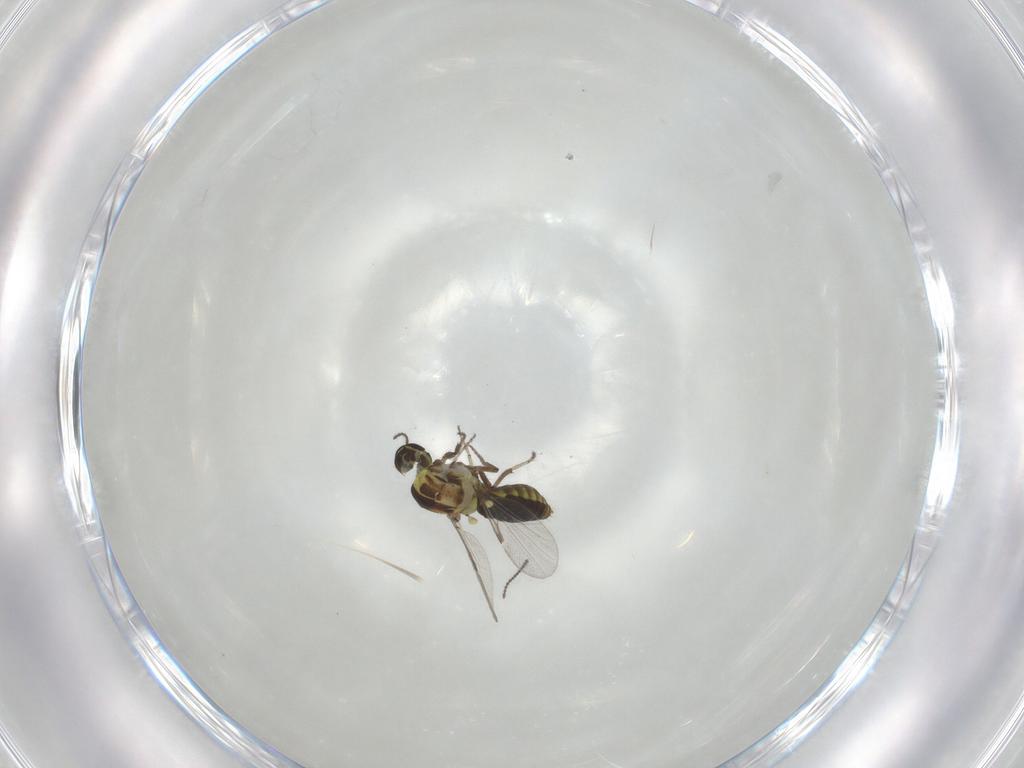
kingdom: Animalia
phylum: Arthropoda
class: Insecta
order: Diptera
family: Ceratopogonidae
